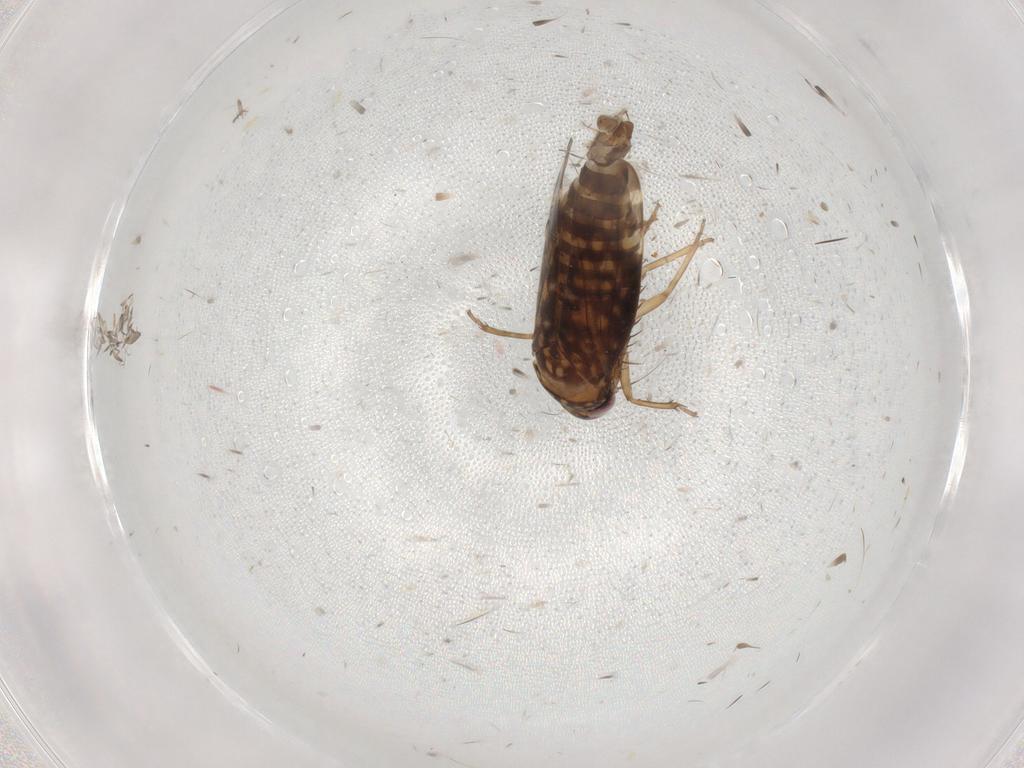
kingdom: Animalia
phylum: Arthropoda
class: Insecta
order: Hemiptera
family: Cicadellidae
